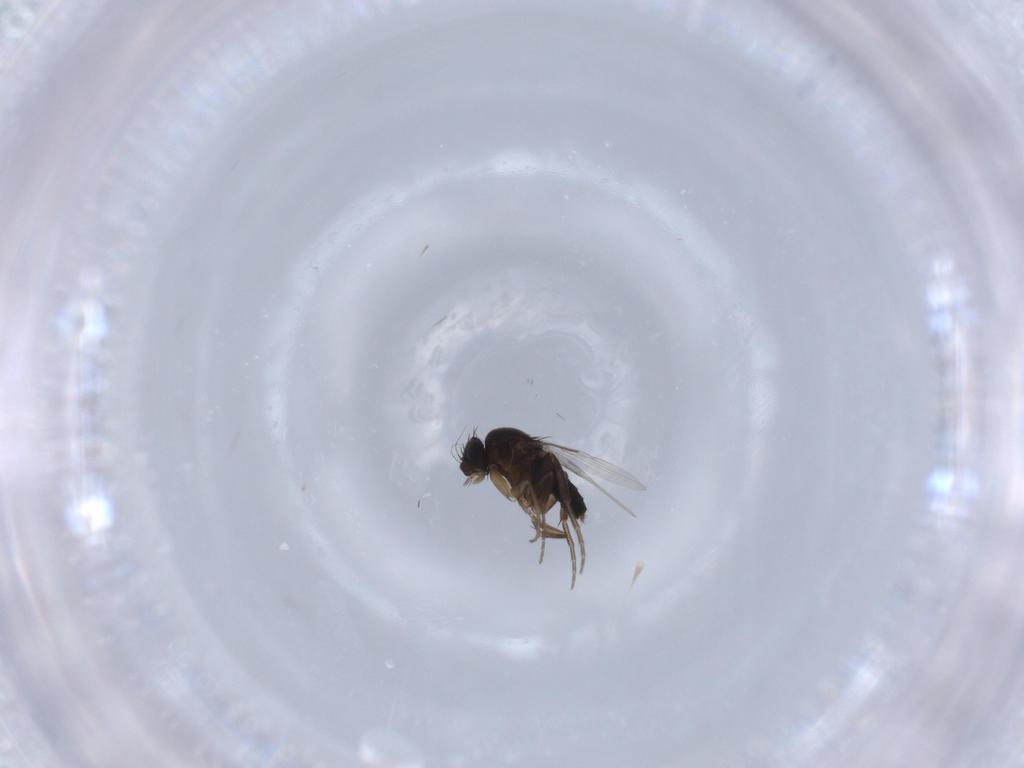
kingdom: Animalia
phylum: Arthropoda
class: Insecta
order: Diptera
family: Phoridae
